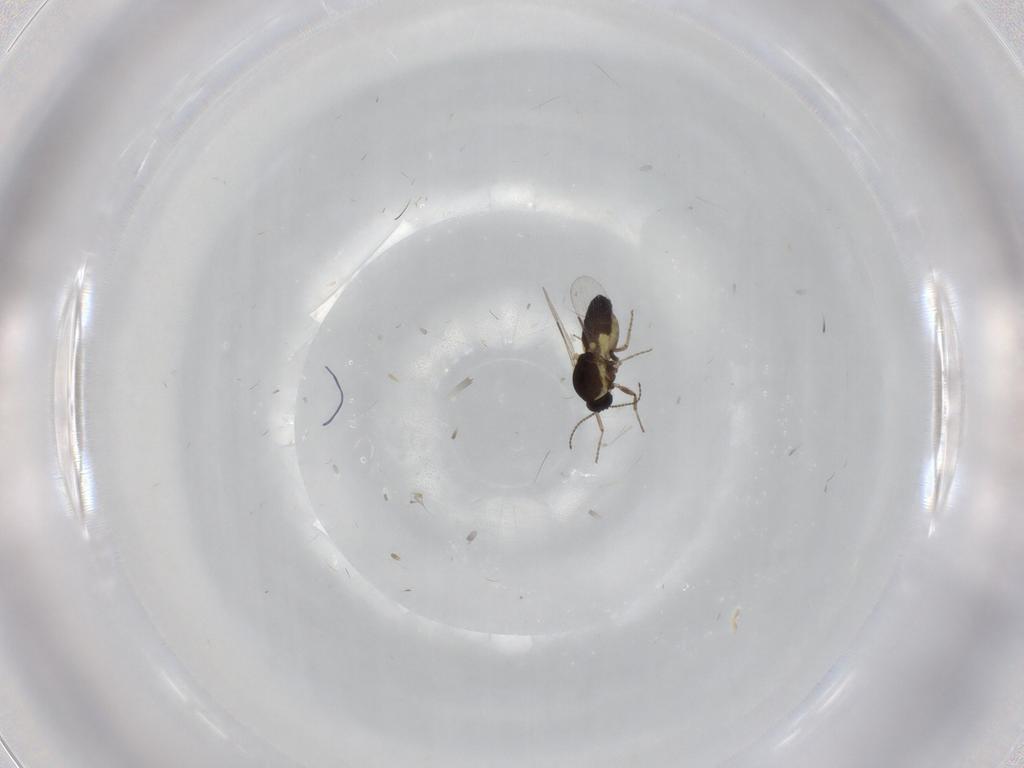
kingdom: Animalia
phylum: Arthropoda
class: Insecta
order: Diptera
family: Ceratopogonidae
